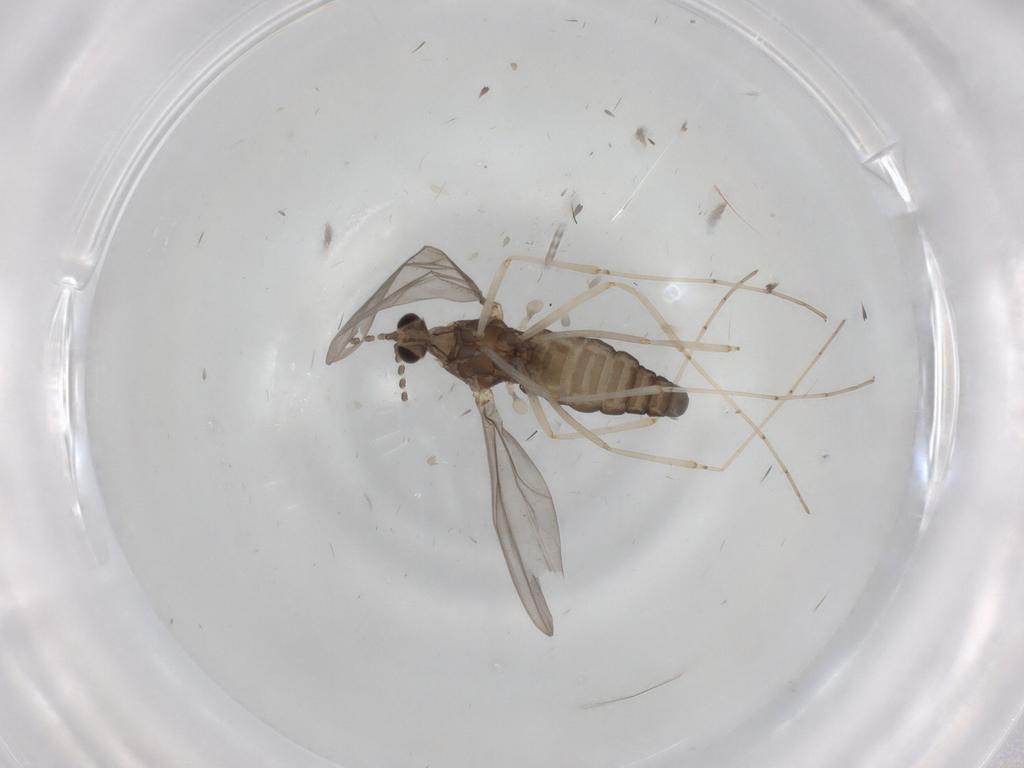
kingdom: Animalia
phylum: Arthropoda
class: Insecta
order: Diptera
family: Cecidomyiidae
